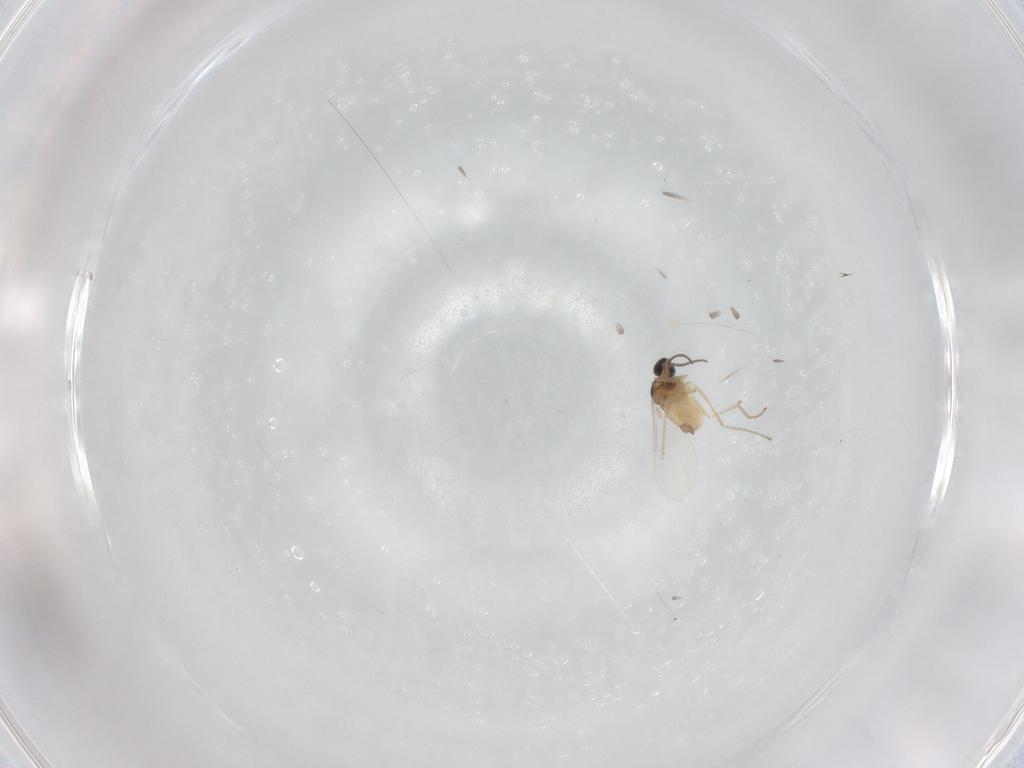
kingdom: Animalia
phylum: Arthropoda
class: Insecta
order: Diptera
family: Cecidomyiidae
